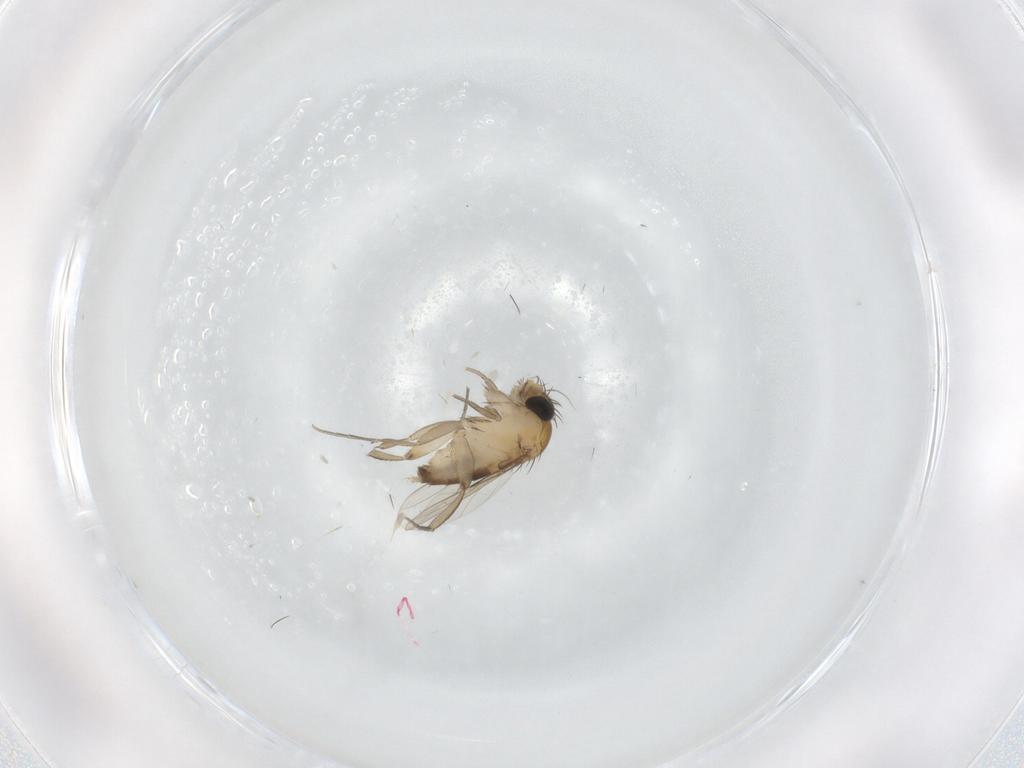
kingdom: Animalia
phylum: Arthropoda
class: Insecta
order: Diptera
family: Phoridae
